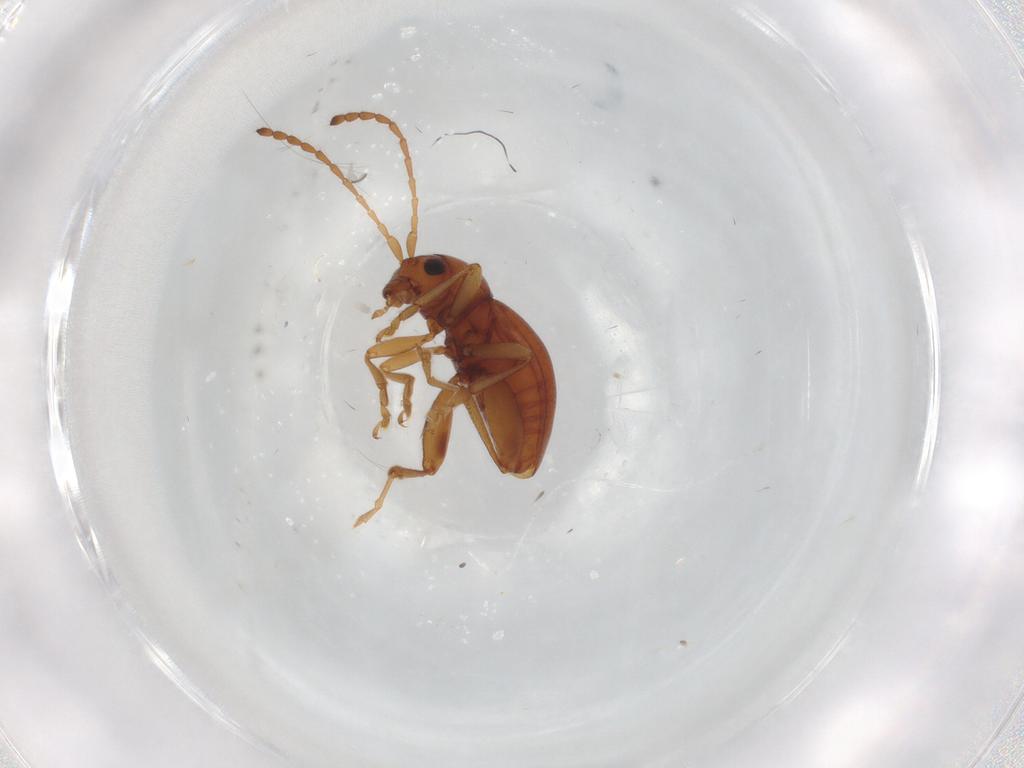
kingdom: Animalia
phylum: Arthropoda
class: Insecta
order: Coleoptera
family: Chrysomelidae
